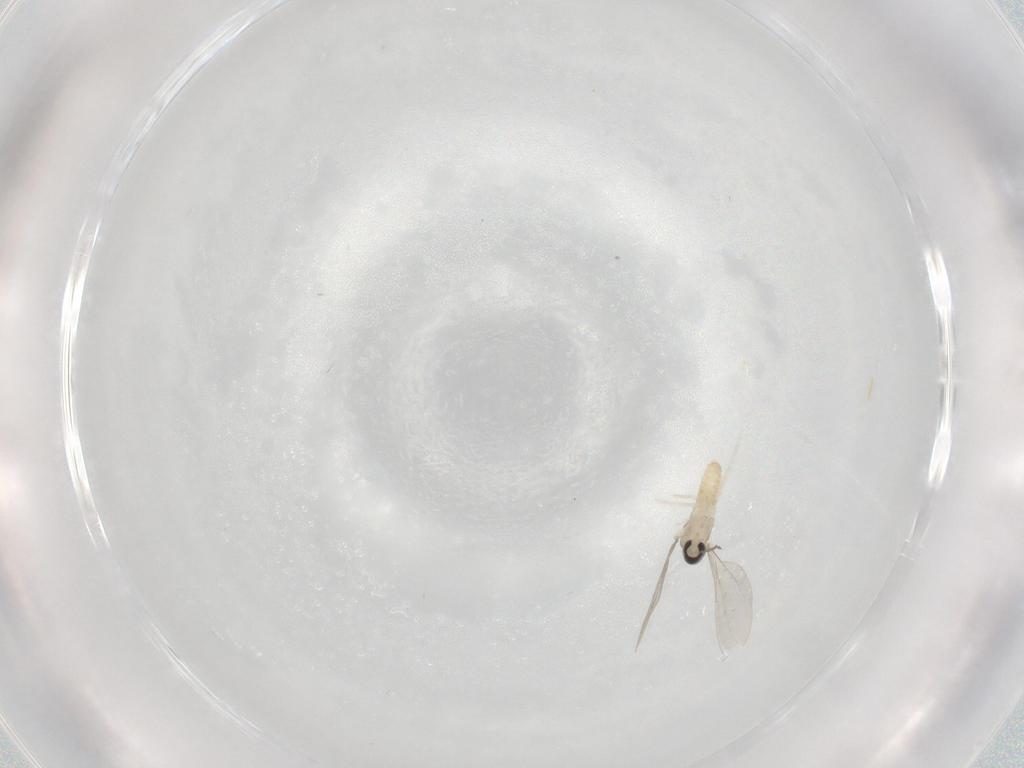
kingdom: Animalia
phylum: Arthropoda
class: Insecta
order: Diptera
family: Cecidomyiidae
